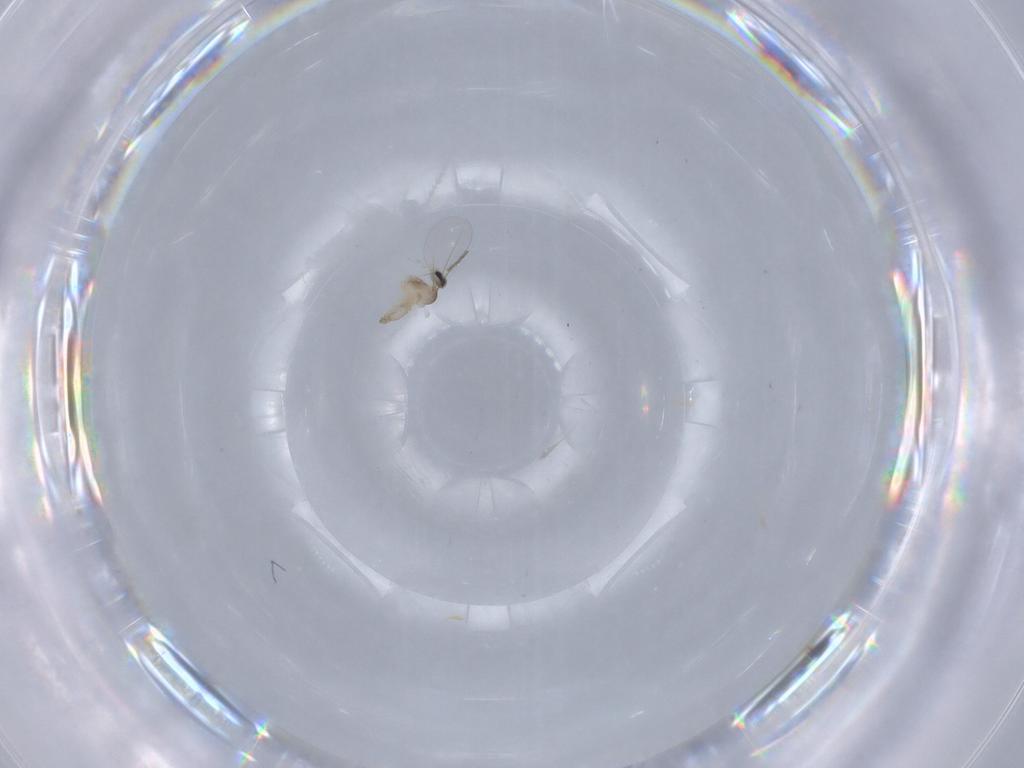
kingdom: Animalia
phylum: Arthropoda
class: Insecta
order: Diptera
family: Cecidomyiidae
